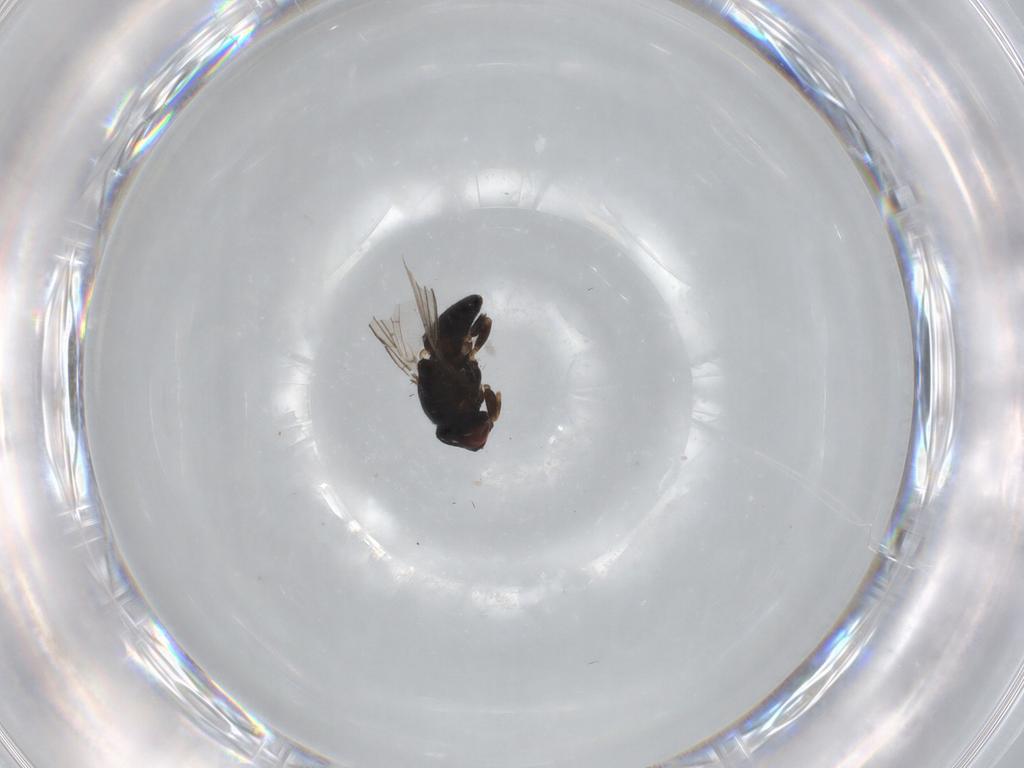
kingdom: Animalia
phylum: Arthropoda
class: Insecta
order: Diptera
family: Chloropidae
